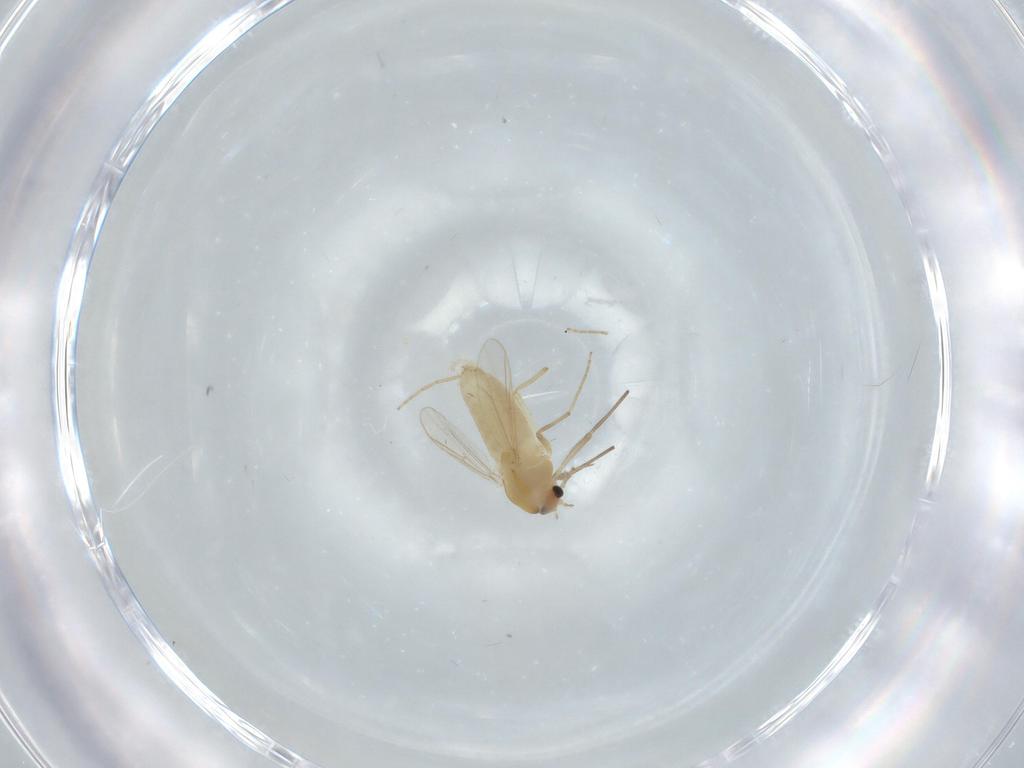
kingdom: Animalia
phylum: Arthropoda
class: Insecta
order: Diptera
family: Chironomidae
